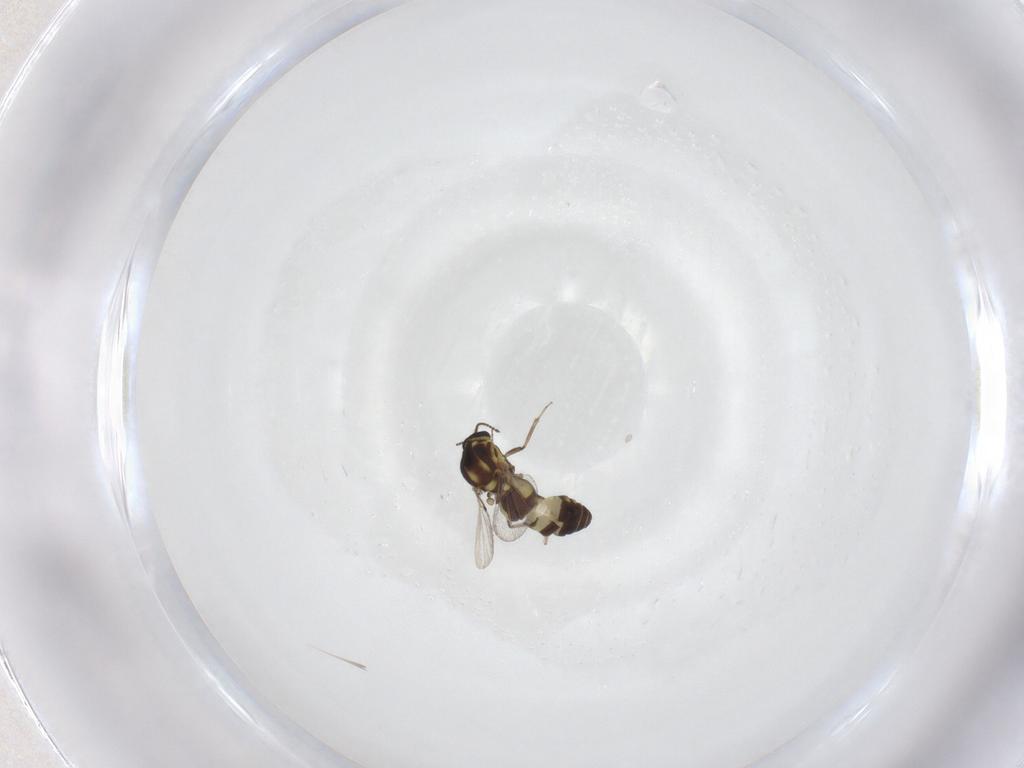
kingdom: Animalia
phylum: Arthropoda
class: Insecta
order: Diptera
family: Ceratopogonidae
